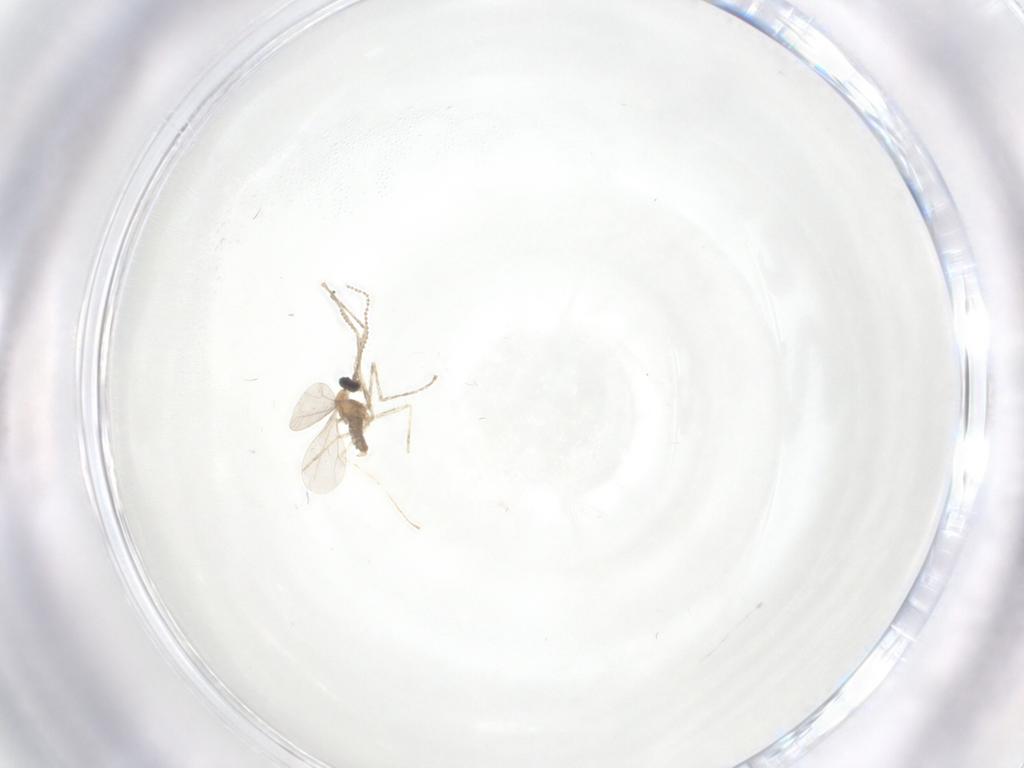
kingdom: Animalia
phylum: Arthropoda
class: Insecta
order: Diptera
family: Cecidomyiidae
